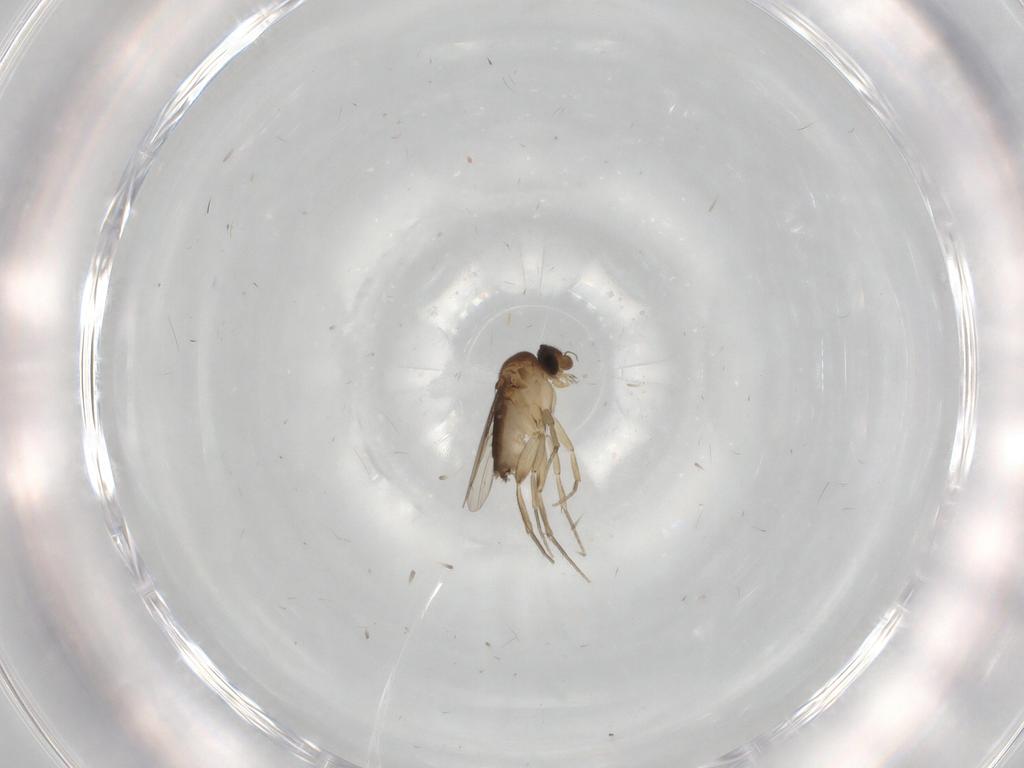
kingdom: Animalia
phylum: Arthropoda
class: Insecta
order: Diptera
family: Cecidomyiidae
